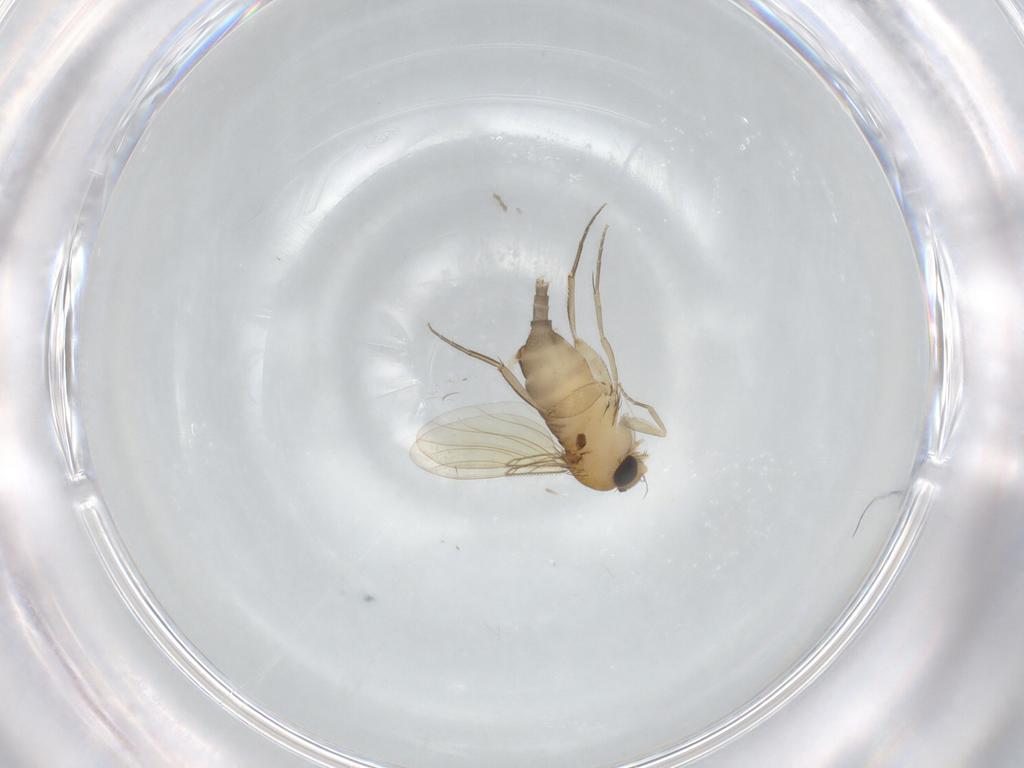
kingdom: Animalia
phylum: Arthropoda
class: Insecta
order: Diptera
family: Phoridae
